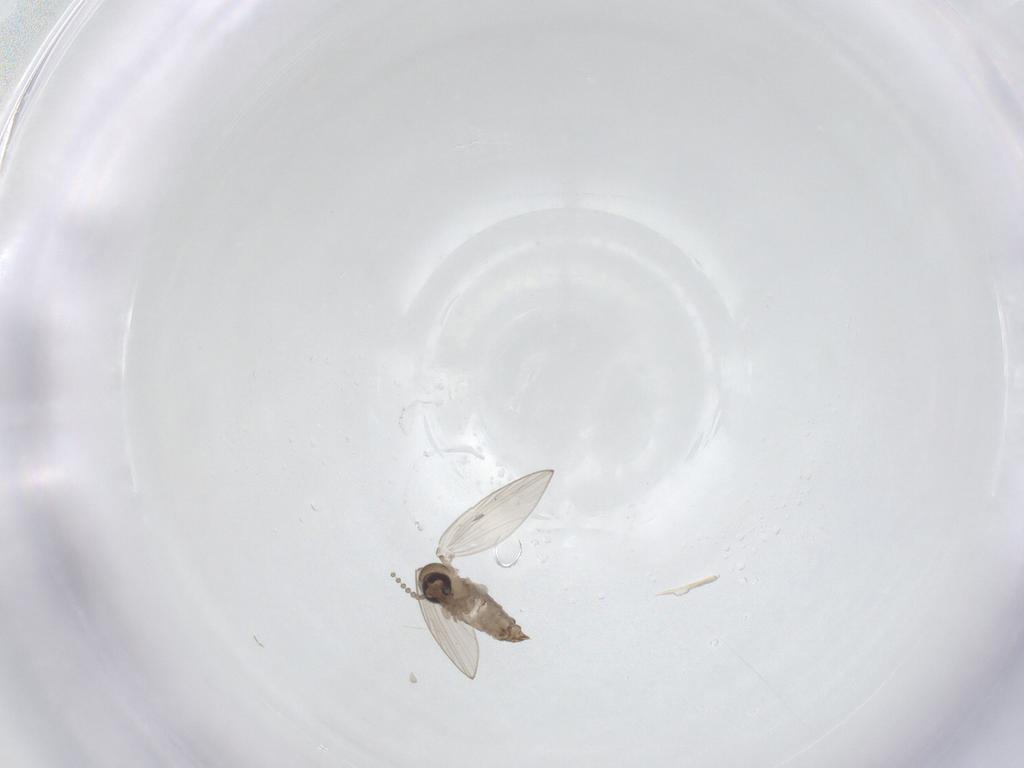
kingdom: Animalia
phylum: Arthropoda
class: Insecta
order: Diptera
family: Psychodidae
